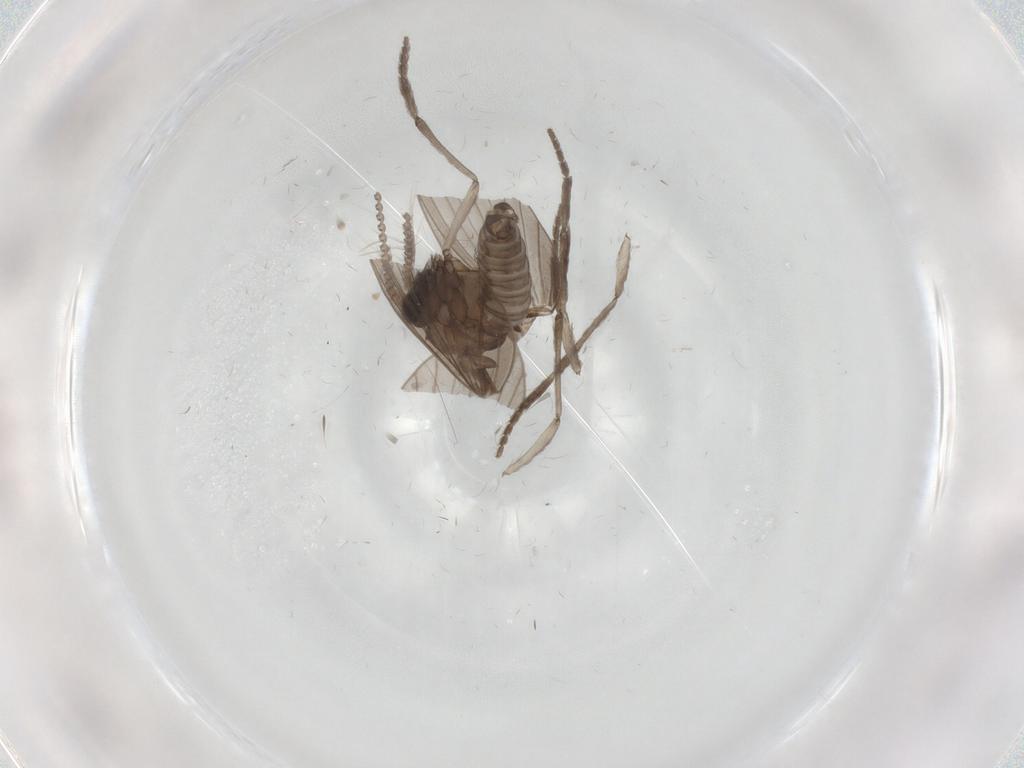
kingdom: Animalia
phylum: Arthropoda
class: Insecta
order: Diptera
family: Psychodidae
